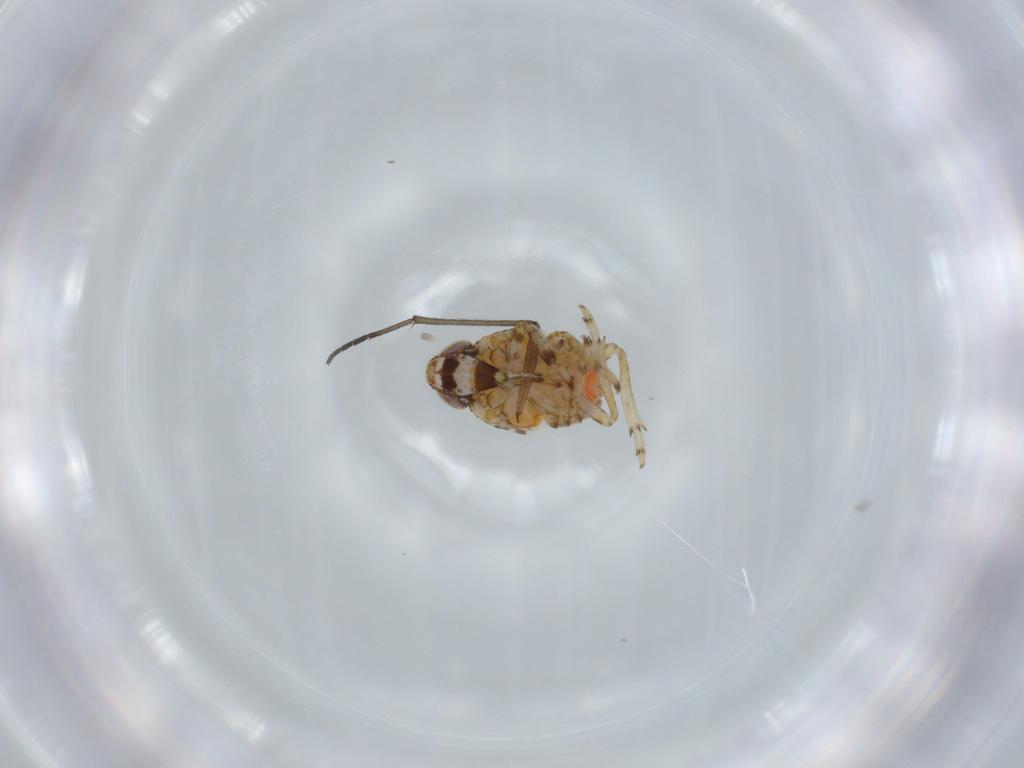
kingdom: Animalia
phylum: Arthropoda
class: Insecta
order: Hemiptera
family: Issidae
